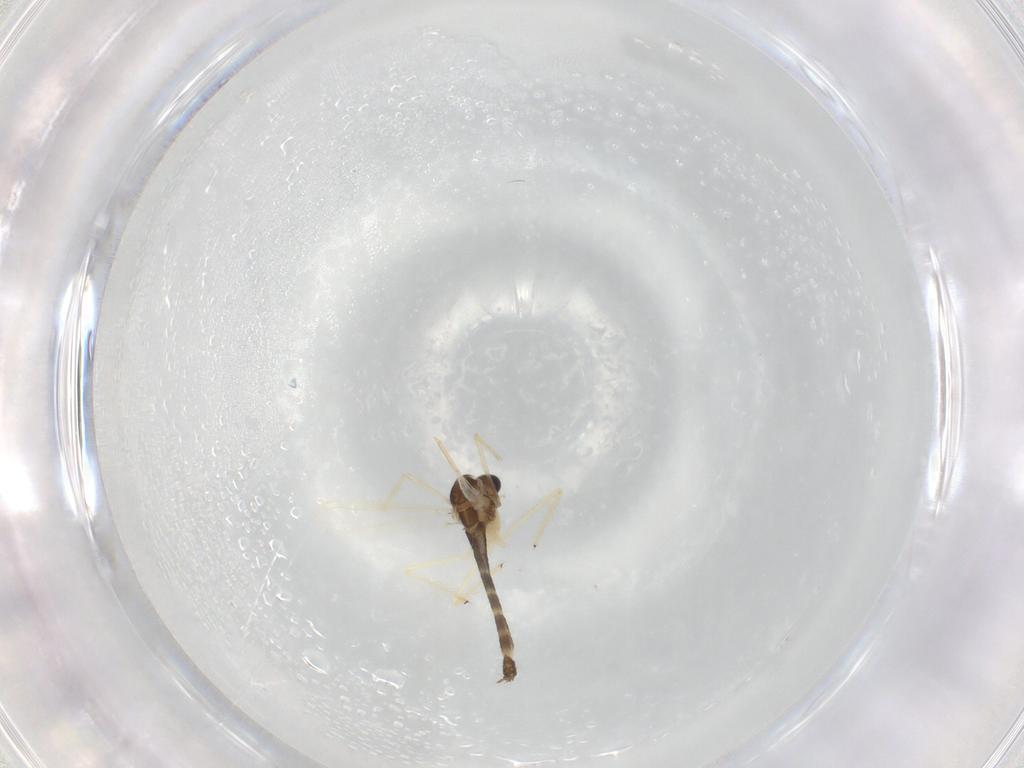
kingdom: Animalia
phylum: Arthropoda
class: Insecta
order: Diptera
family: Chironomidae
